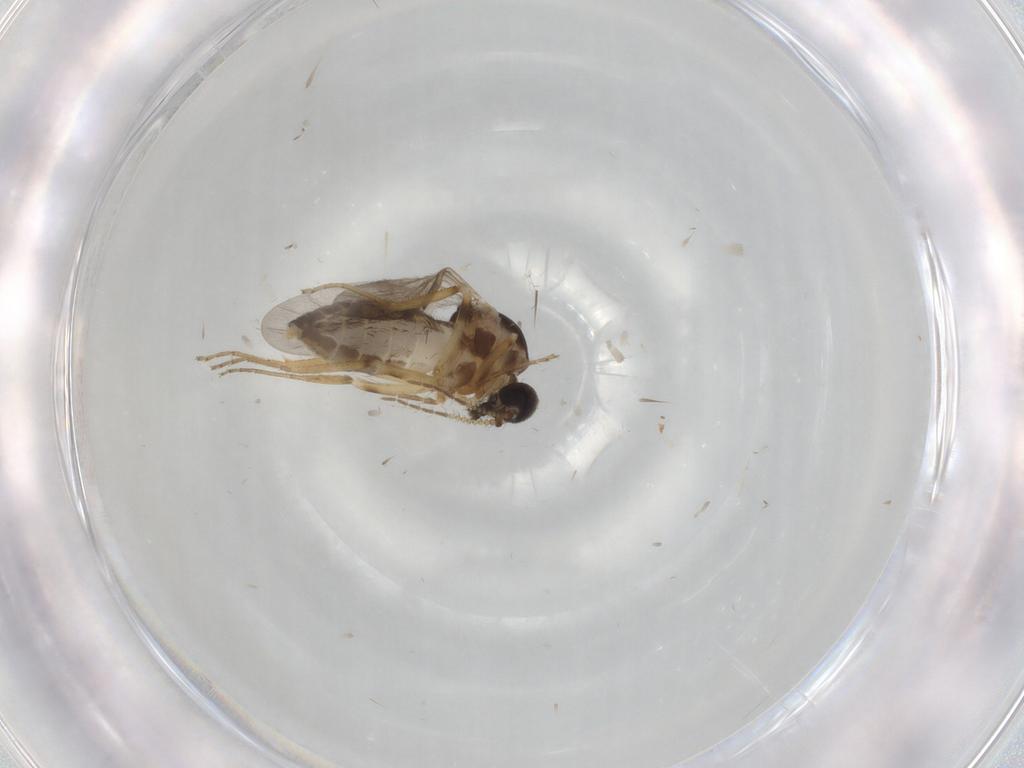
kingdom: Animalia
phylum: Arthropoda
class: Insecta
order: Diptera
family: Ceratopogonidae
